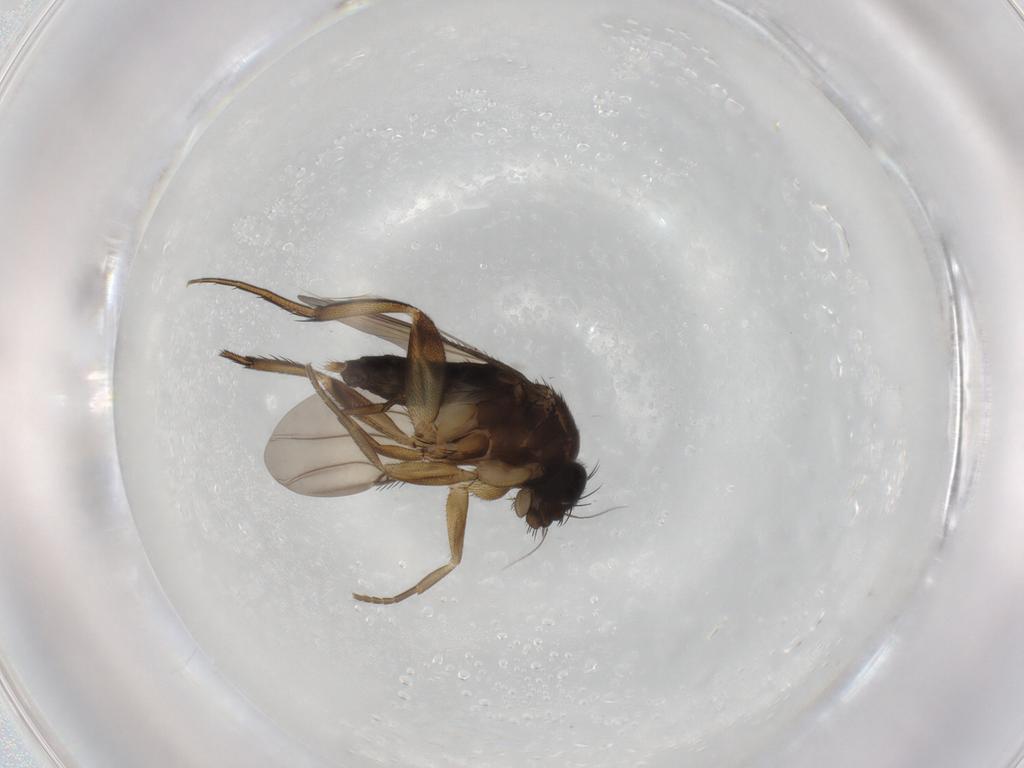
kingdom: Animalia
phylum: Arthropoda
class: Insecta
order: Diptera
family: Phoridae
